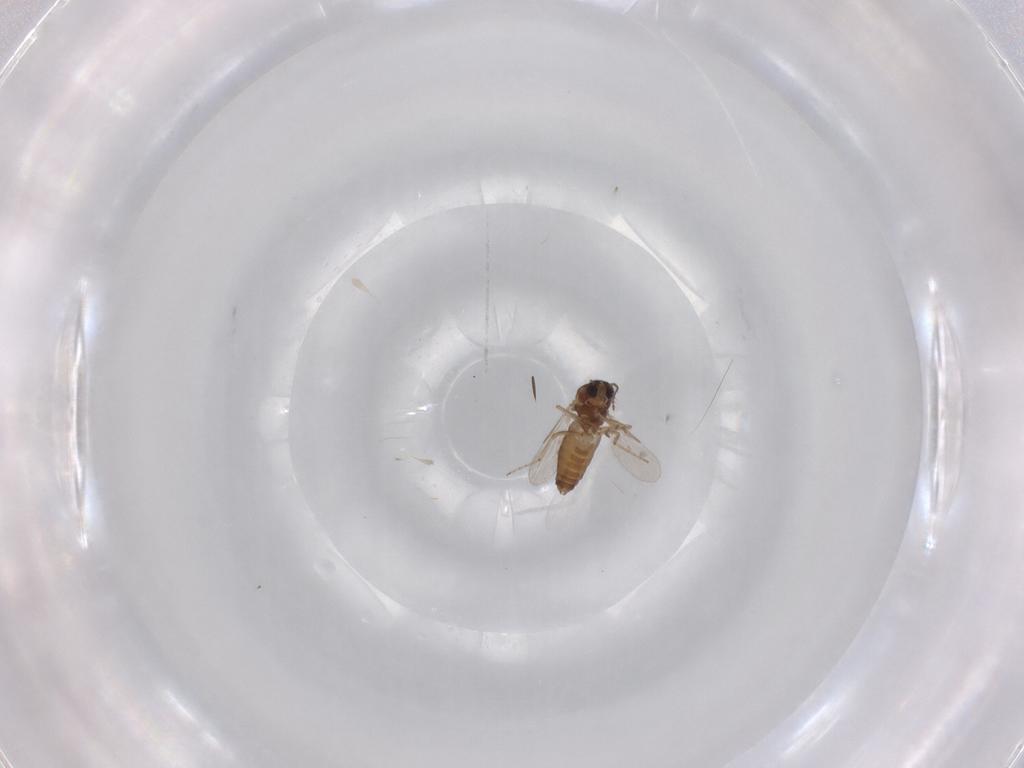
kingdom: Animalia
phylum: Arthropoda
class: Insecta
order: Diptera
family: Ceratopogonidae
